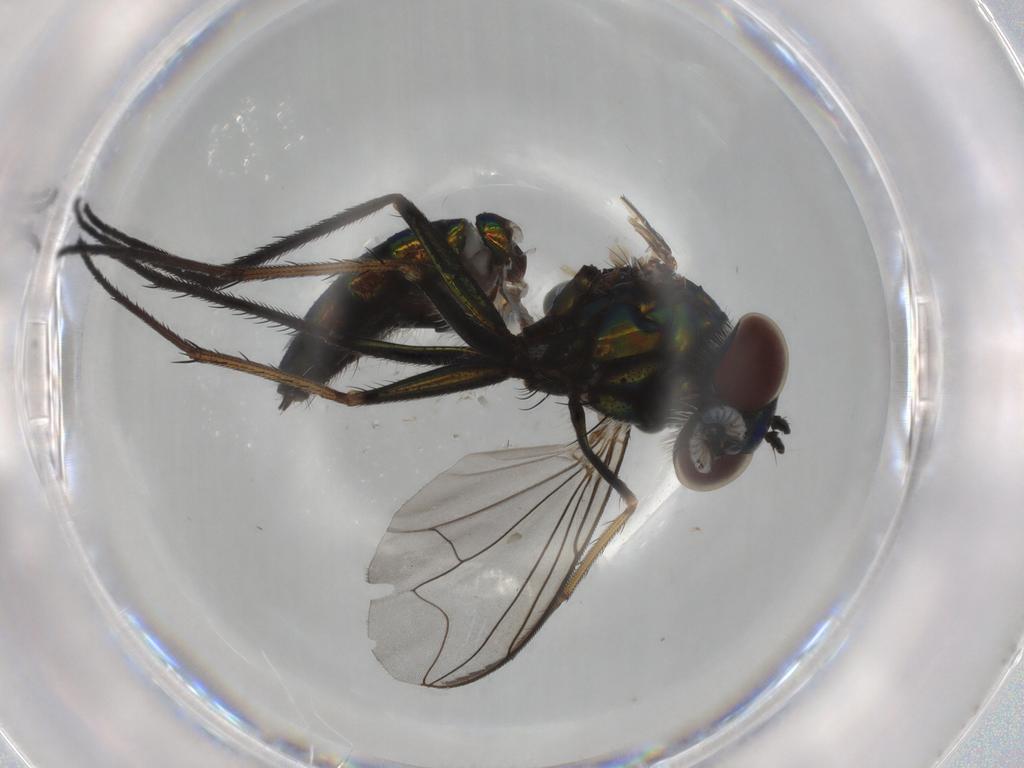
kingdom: Animalia
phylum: Arthropoda
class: Insecta
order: Diptera
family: Dolichopodidae
